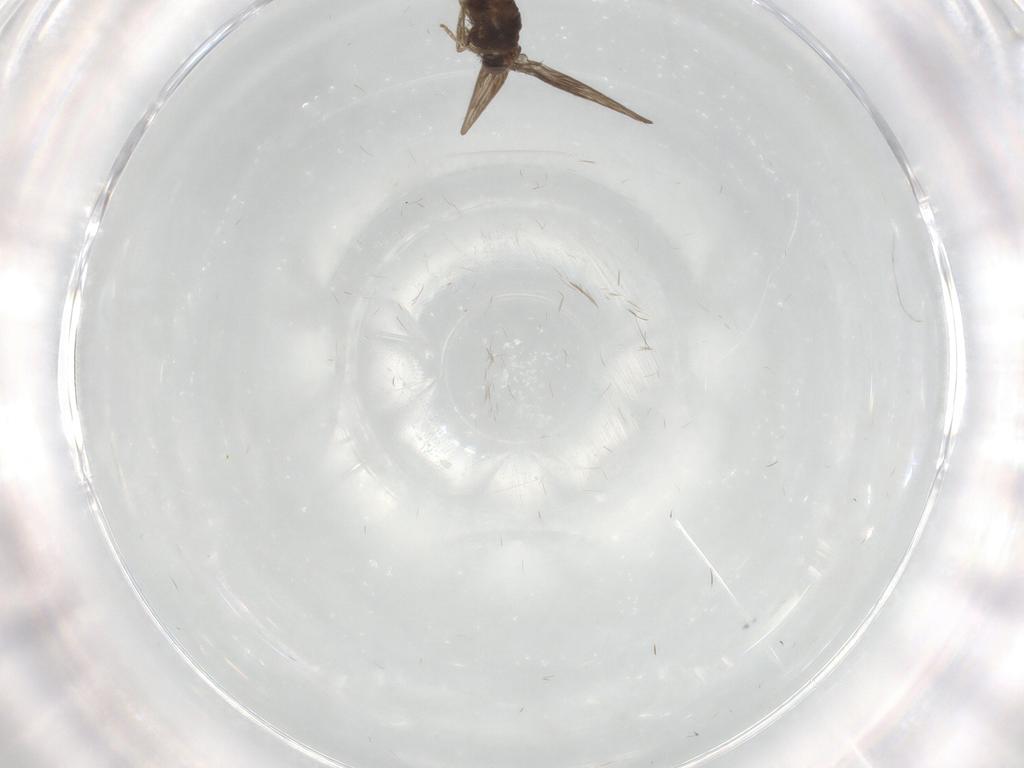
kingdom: Animalia
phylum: Arthropoda
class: Insecta
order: Diptera
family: Psychodidae
